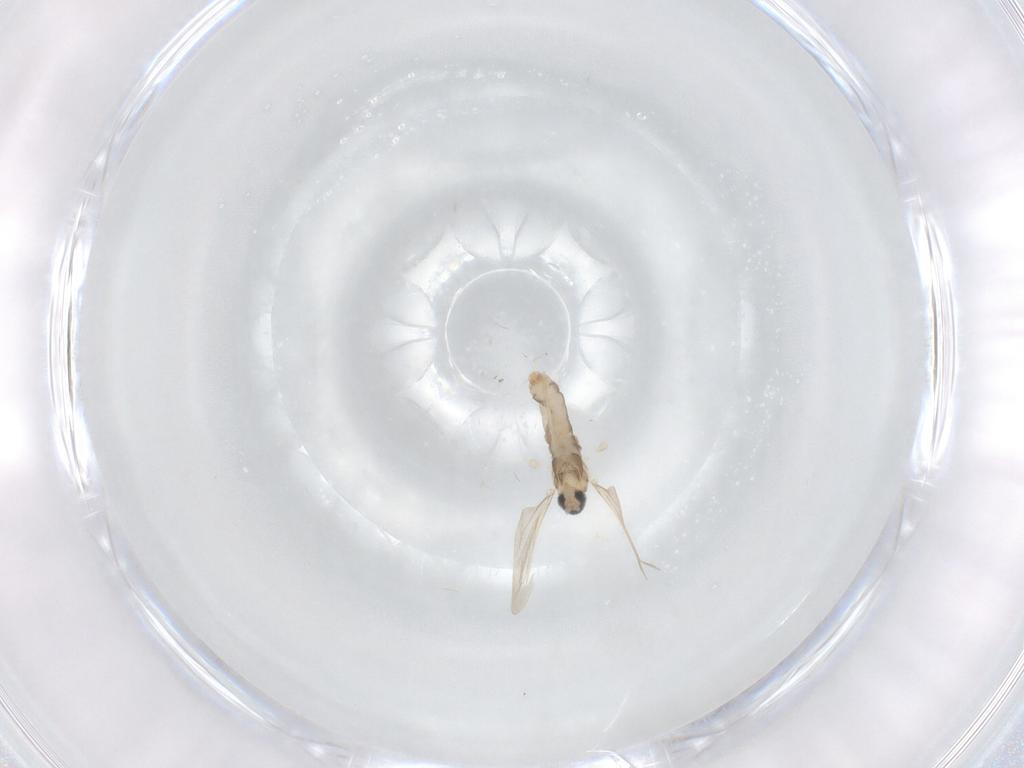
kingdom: Animalia
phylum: Arthropoda
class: Insecta
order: Diptera
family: Cecidomyiidae
